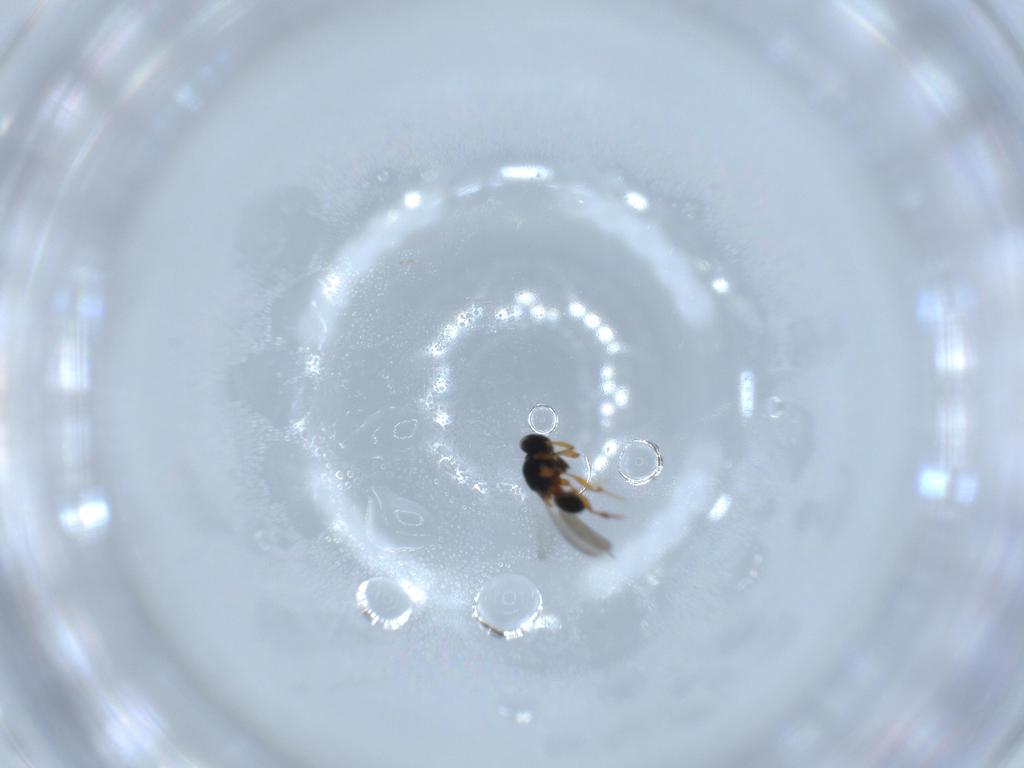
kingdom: Animalia
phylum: Arthropoda
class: Insecta
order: Hymenoptera
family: Platygastridae
